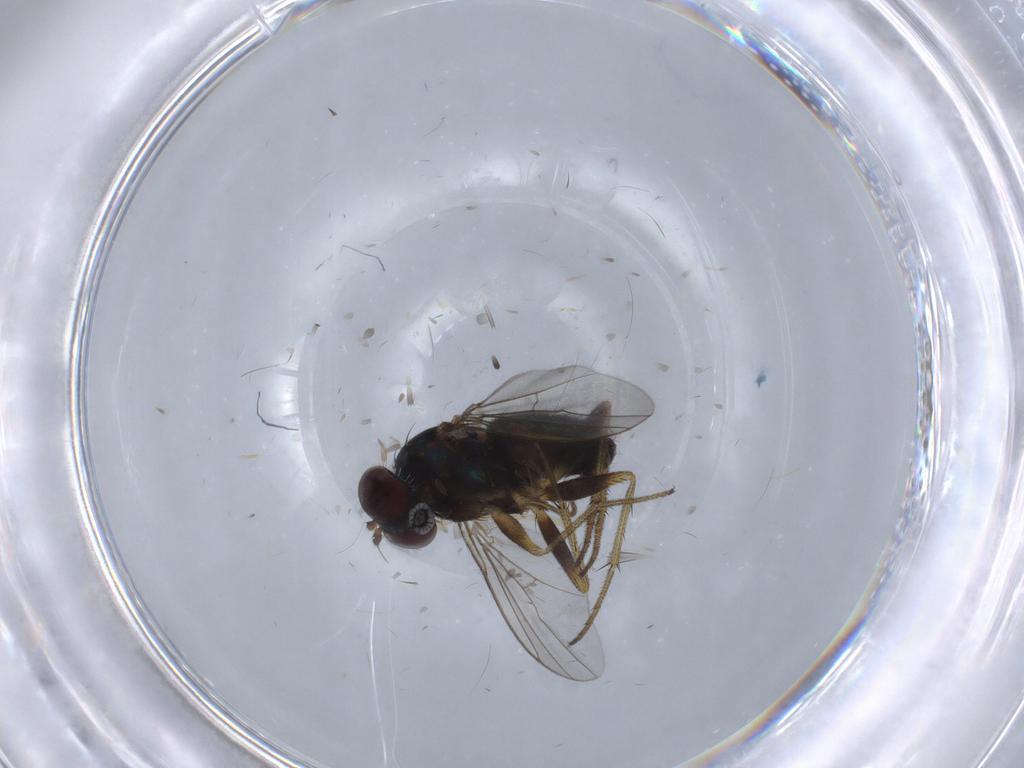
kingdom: Animalia
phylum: Arthropoda
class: Insecta
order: Diptera
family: Dolichopodidae
